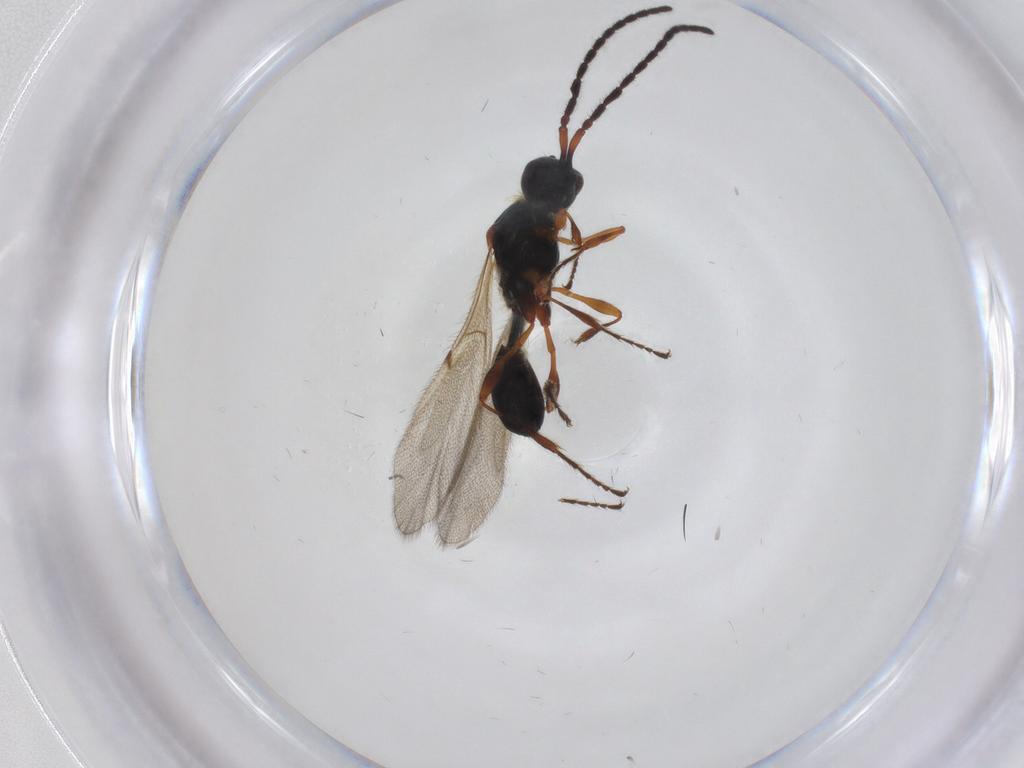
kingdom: Animalia
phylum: Arthropoda
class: Insecta
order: Hymenoptera
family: Diapriidae
